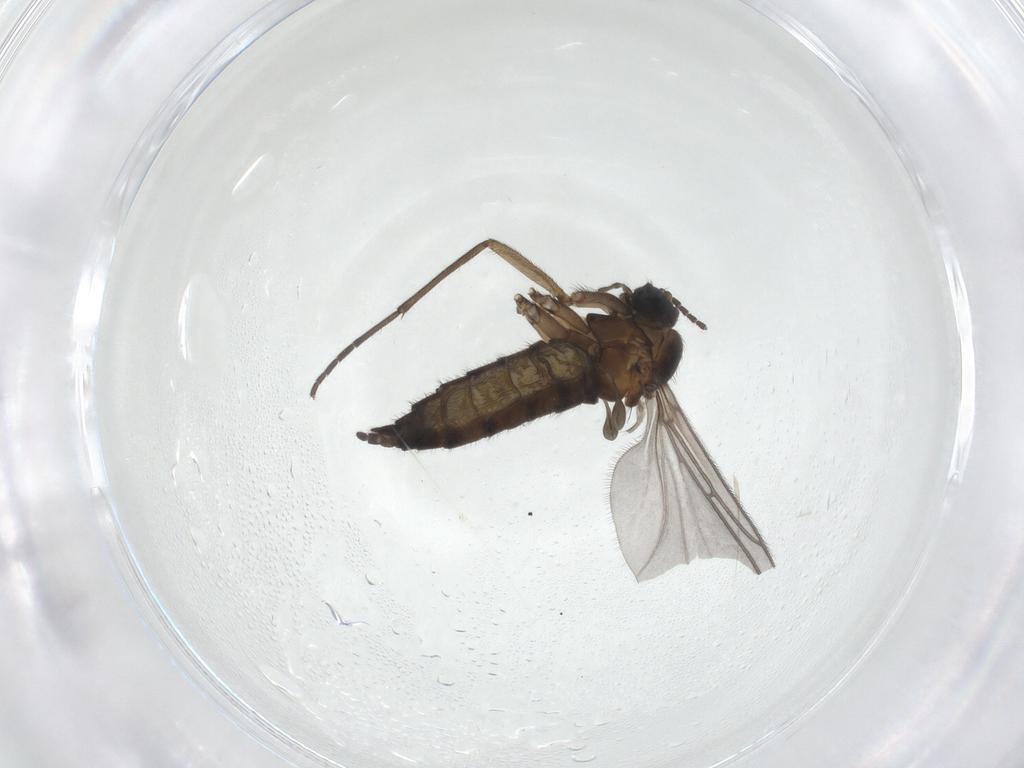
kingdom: Animalia
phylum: Arthropoda
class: Insecta
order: Diptera
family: Sciaridae
